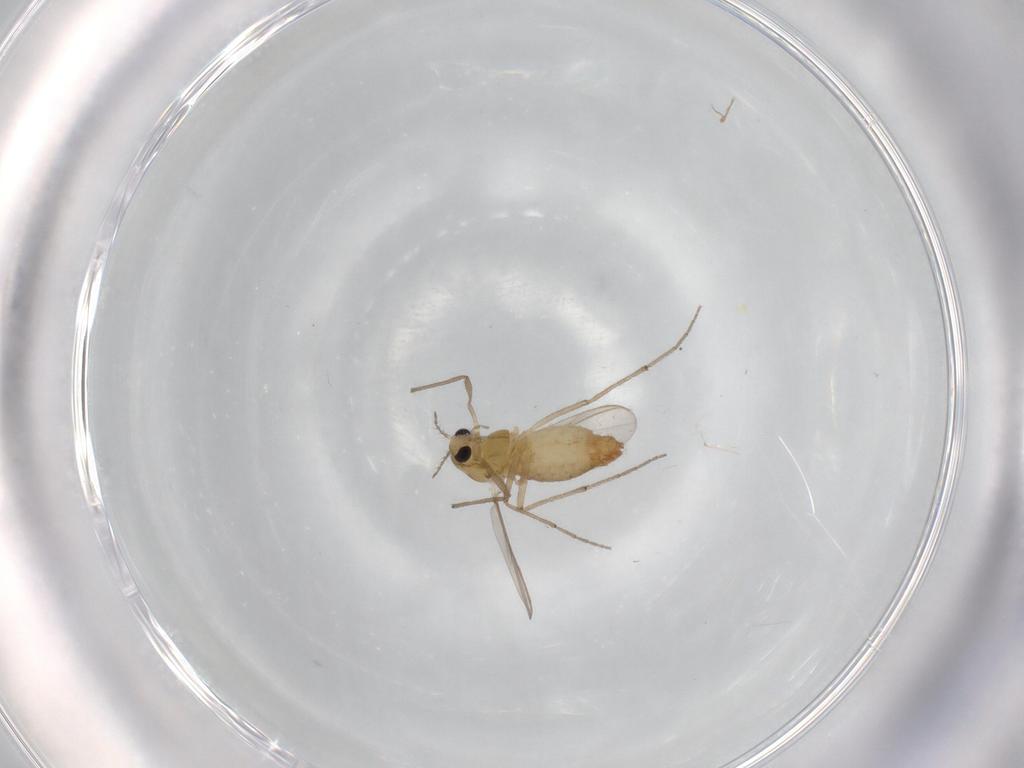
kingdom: Animalia
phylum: Arthropoda
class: Insecta
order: Diptera
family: Chironomidae
